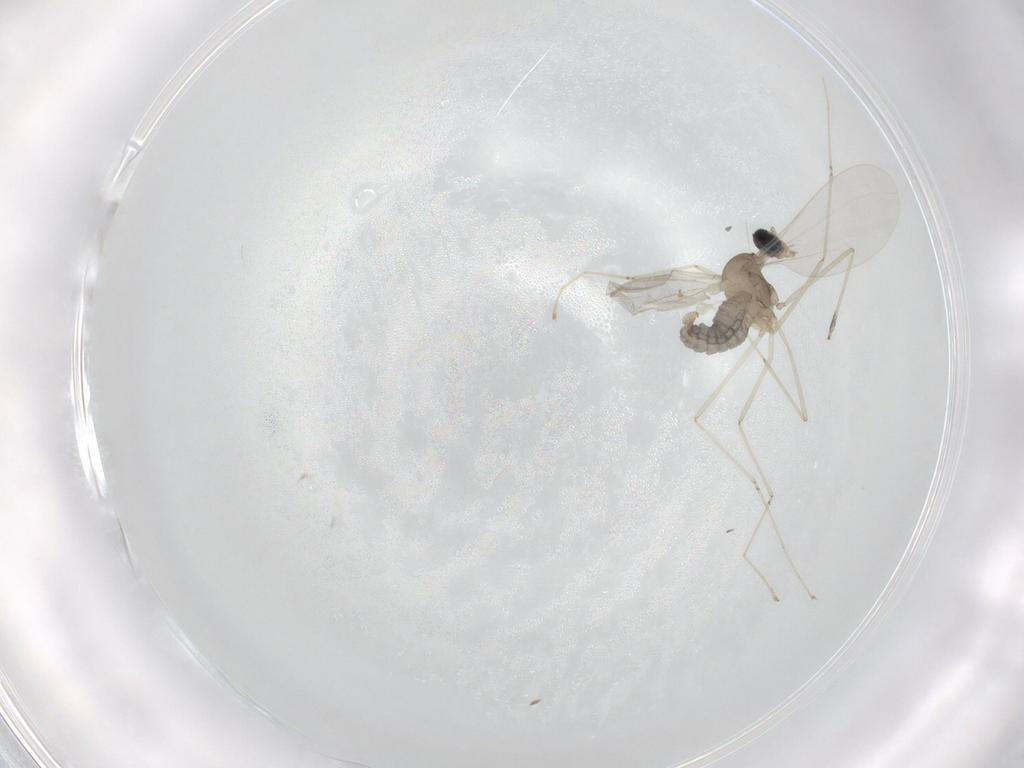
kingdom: Animalia
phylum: Arthropoda
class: Insecta
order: Diptera
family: Cecidomyiidae
